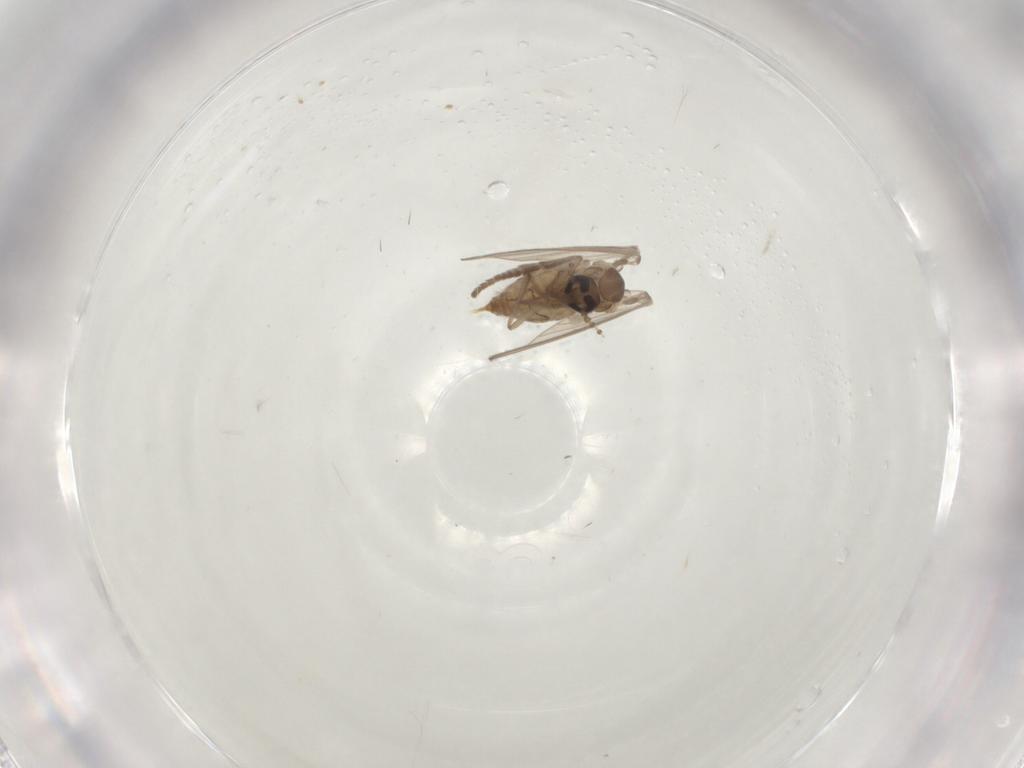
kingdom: Animalia
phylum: Arthropoda
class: Insecta
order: Diptera
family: Psychodidae
